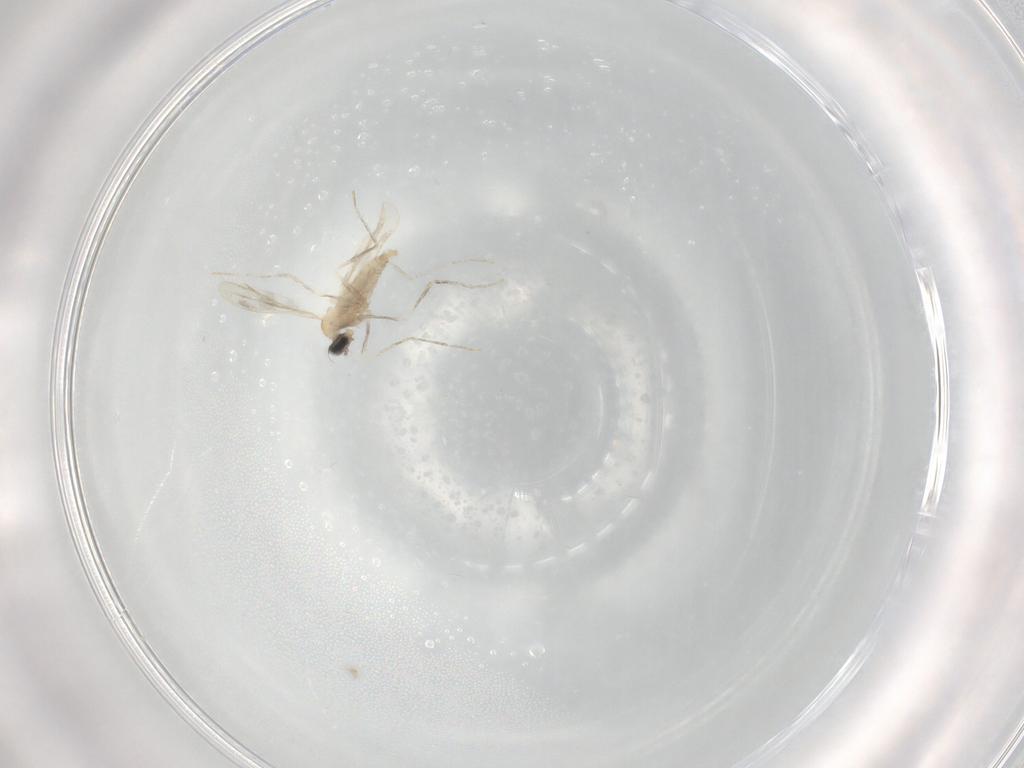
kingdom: Animalia
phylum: Arthropoda
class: Insecta
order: Diptera
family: Cecidomyiidae
